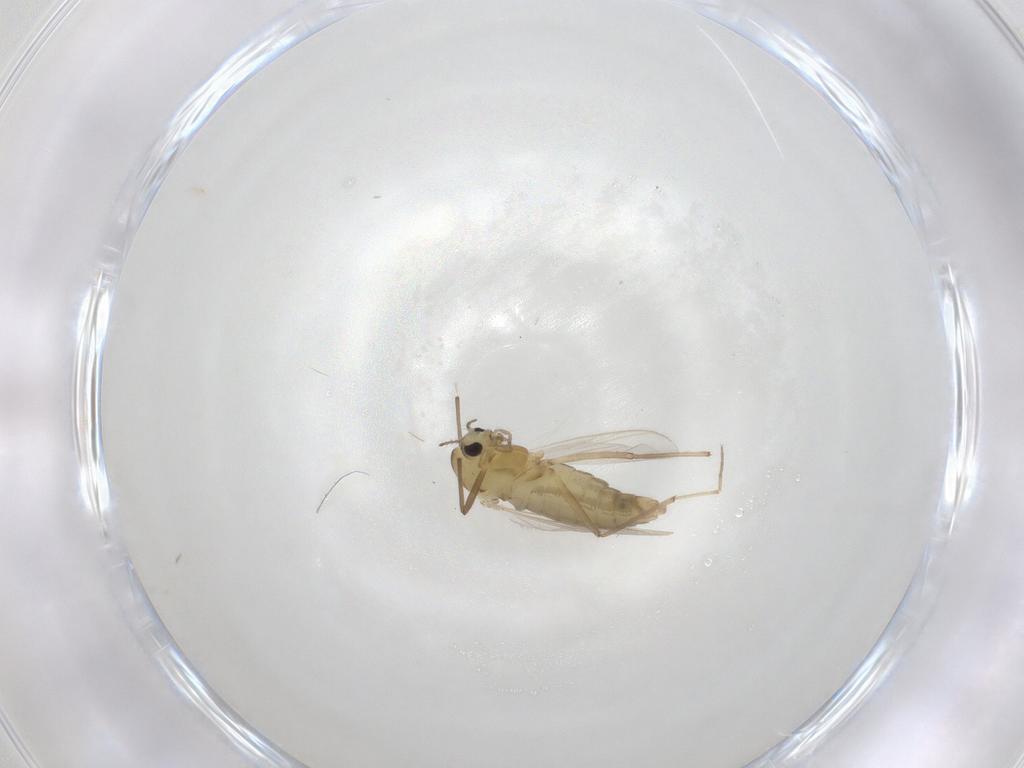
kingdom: Animalia
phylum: Arthropoda
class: Insecta
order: Diptera
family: Chironomidae
